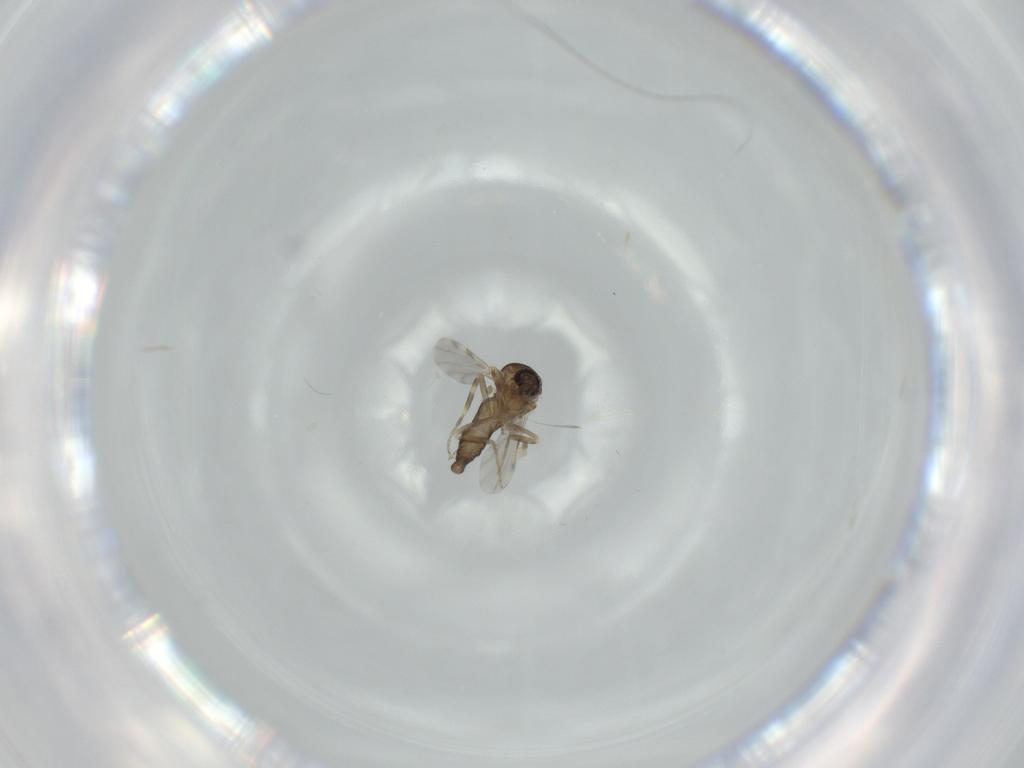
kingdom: Animalia
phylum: Arthropoda
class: Insecta
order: Diptera
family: Ceratopogonidae
